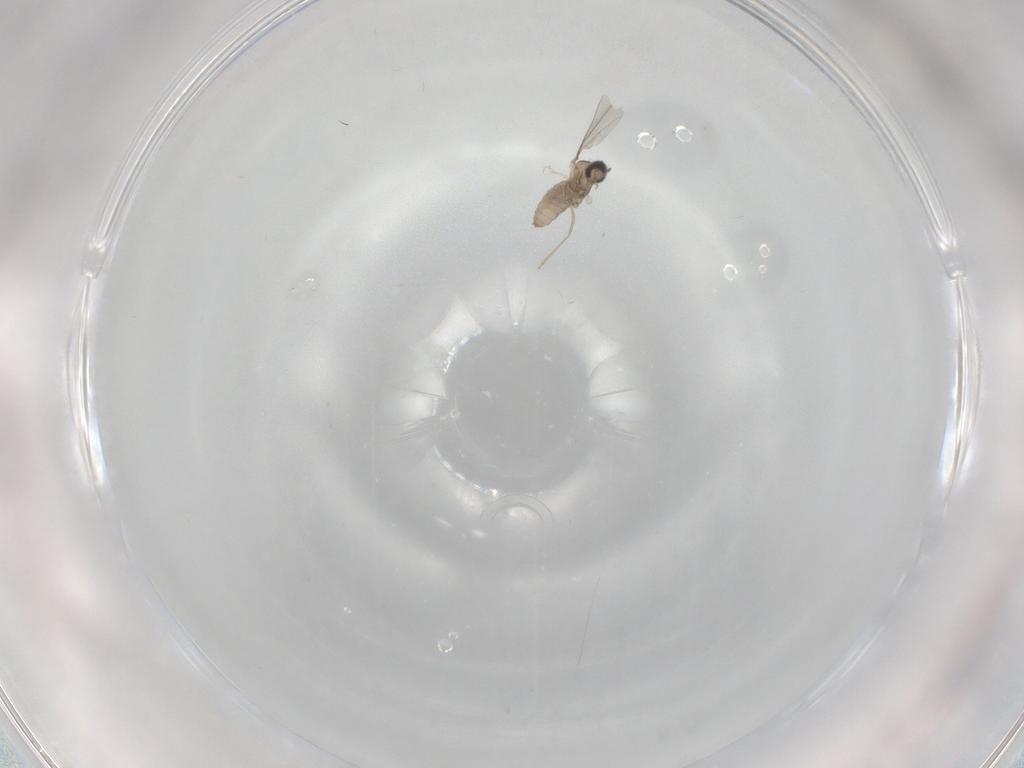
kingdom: Animalia
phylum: Arthropoda
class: Insecta
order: Diptera
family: Cecidomyiidae
